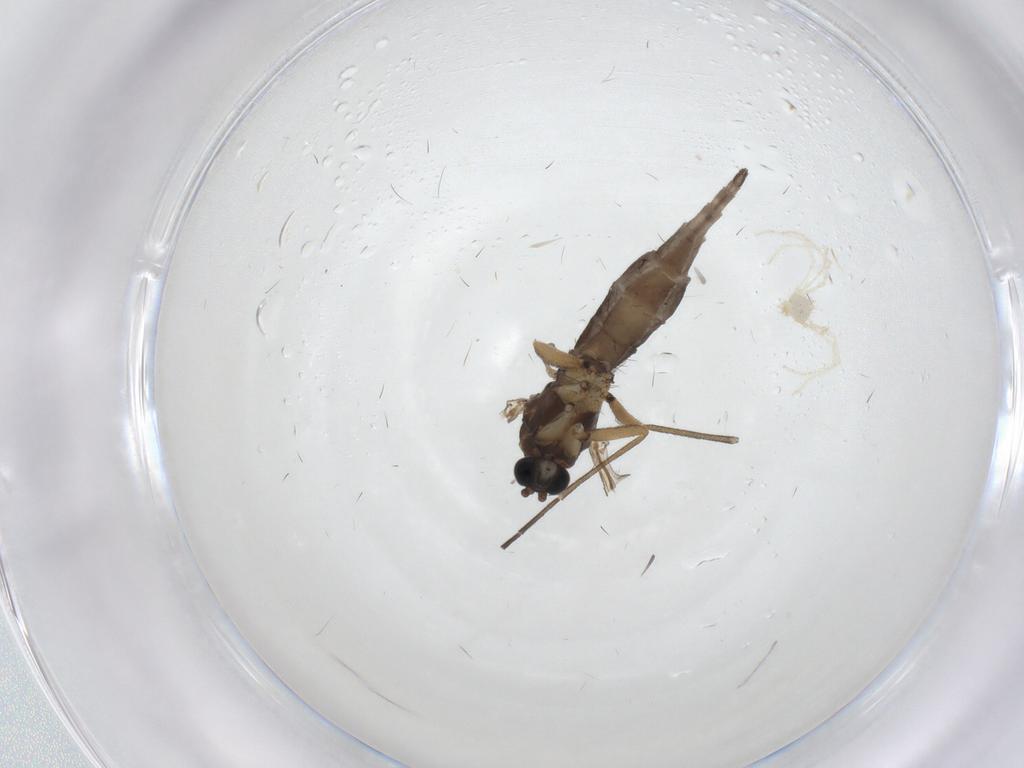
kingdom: Animalia
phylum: Arthropoda
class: Insecta
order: Diptera
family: Sciaridae
